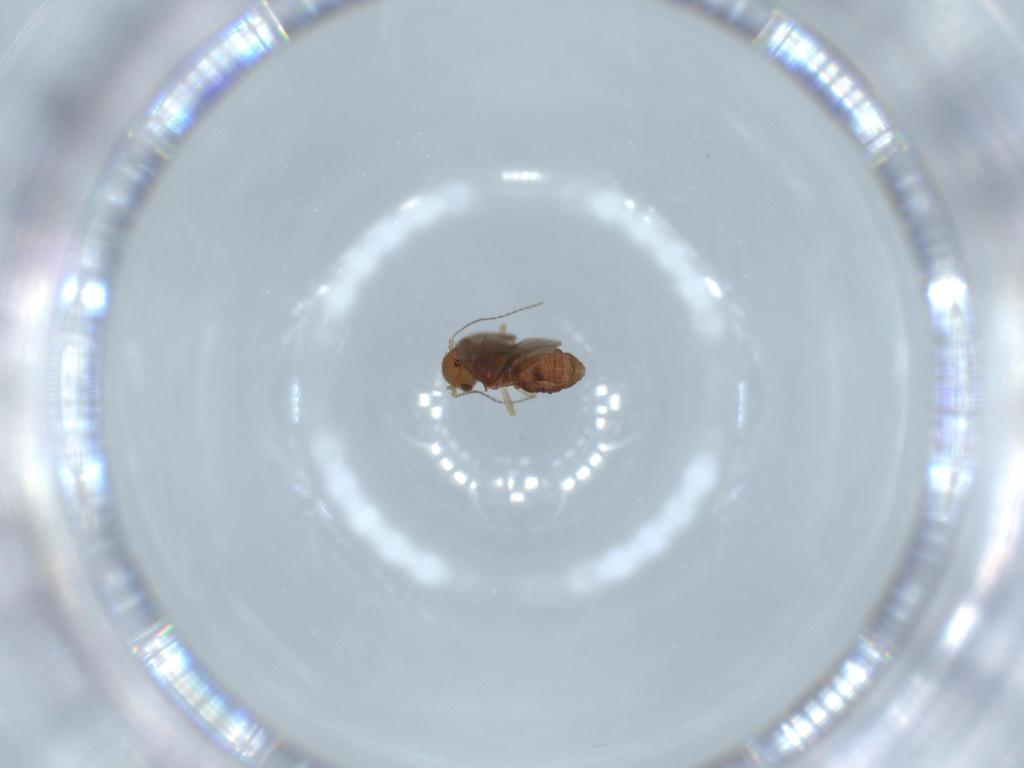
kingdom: Animalia
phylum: Arthropoda
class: Insecta
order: Psocodea
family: Ectopsocidae
